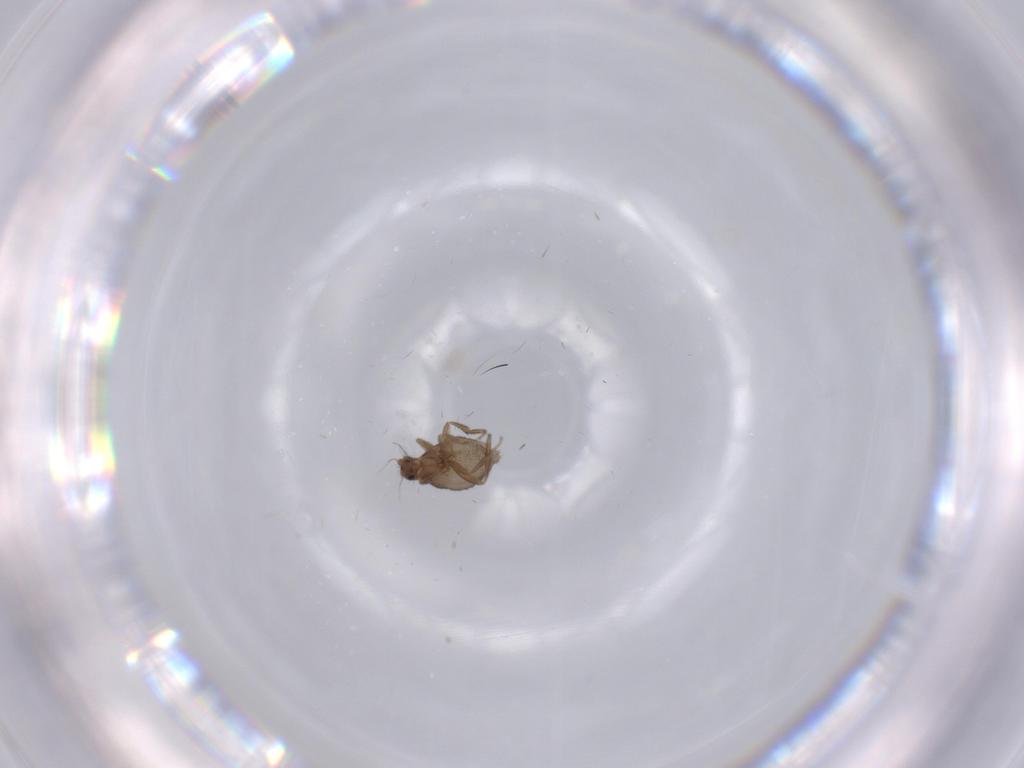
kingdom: Animalia
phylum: Arthropoda
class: Insecta
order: Diptera
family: Phoridae
